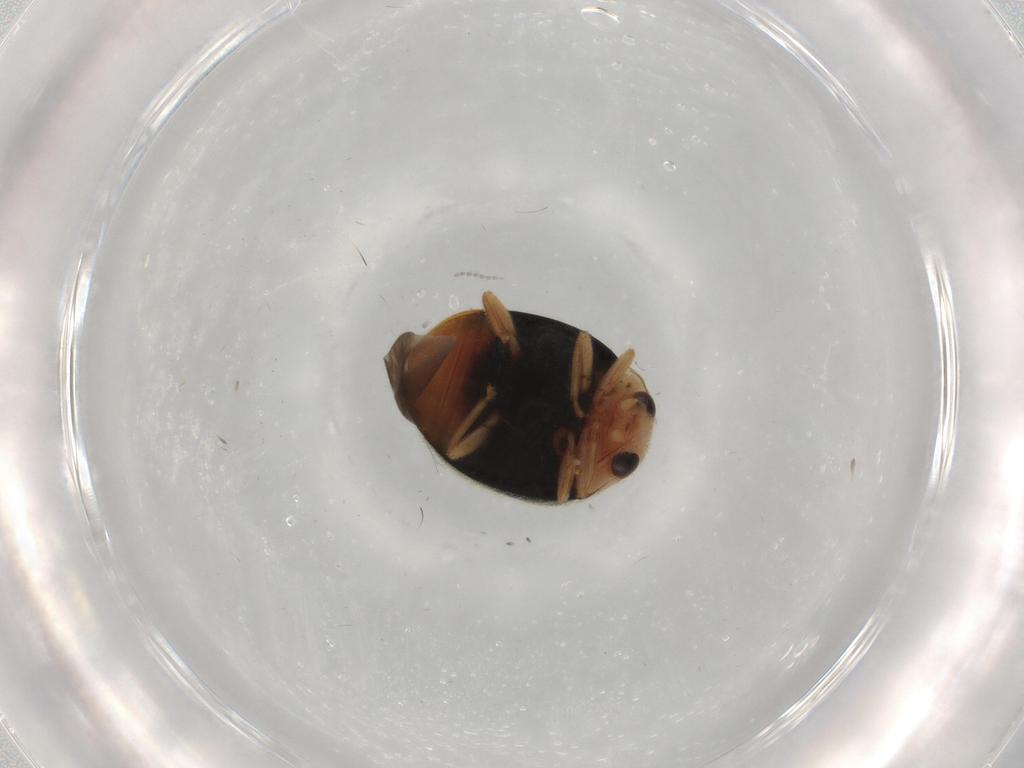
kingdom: Animalia
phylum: Arthropoda
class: Insecta
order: Coleoptera
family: Coccinellidae
